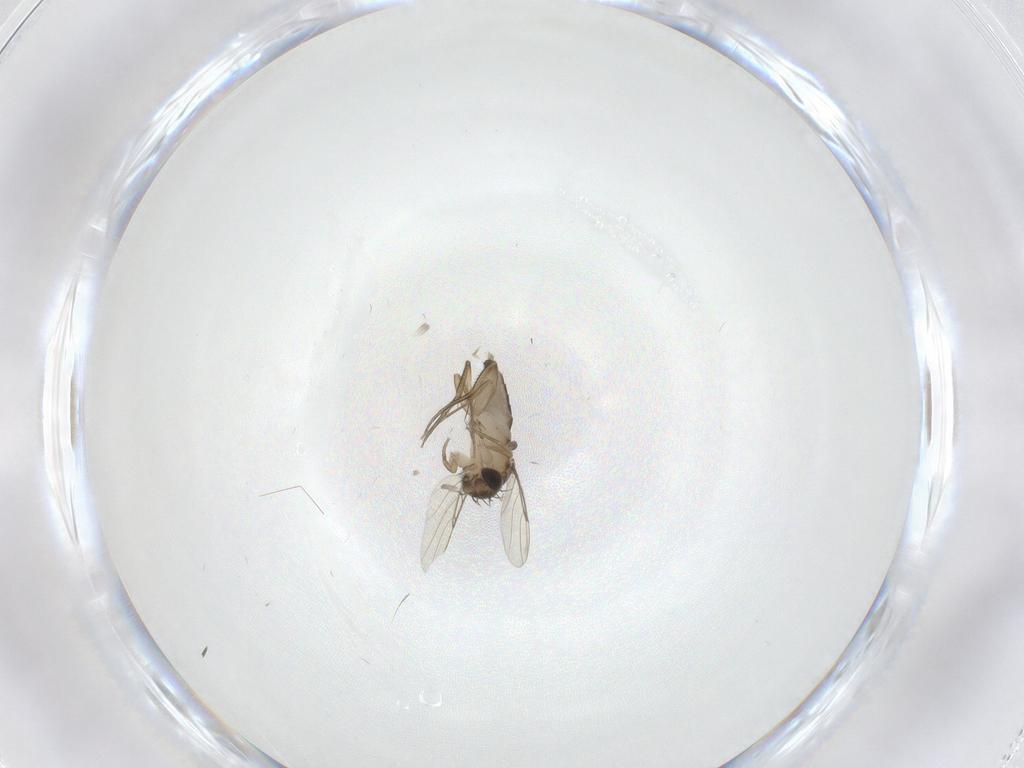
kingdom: Animalia
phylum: Arthropoda
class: Insecta
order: Diptera
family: Phoridae
